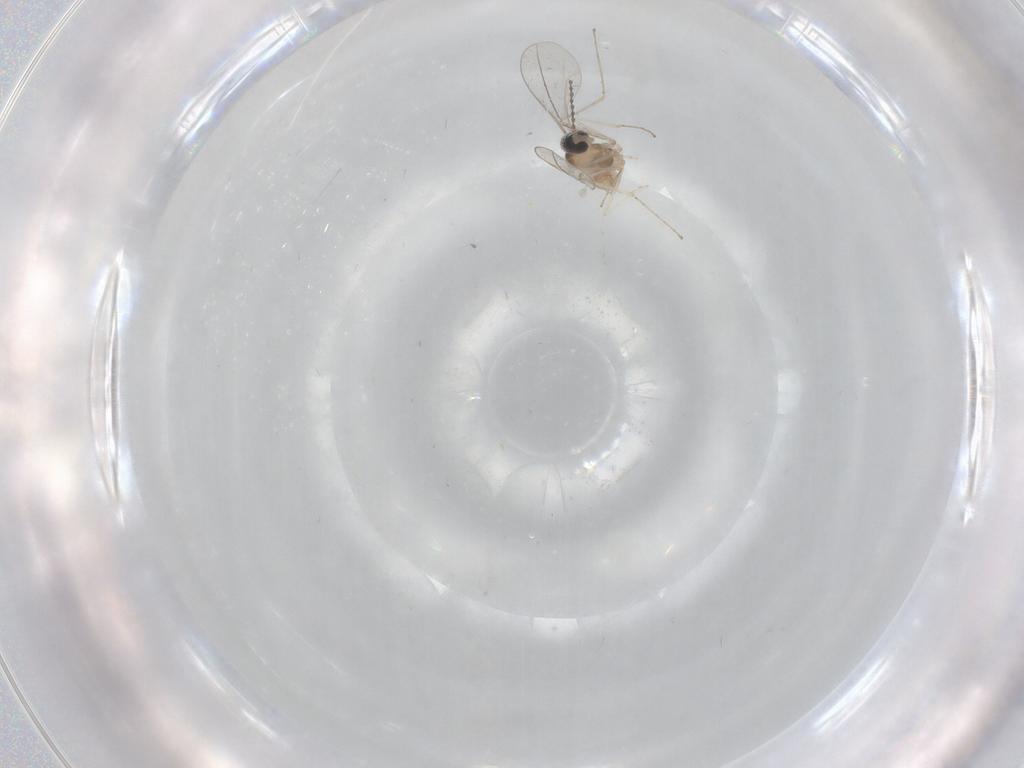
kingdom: Animalia
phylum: Arthropoda
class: Insecta
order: Diptera
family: Cecidomyiidae
